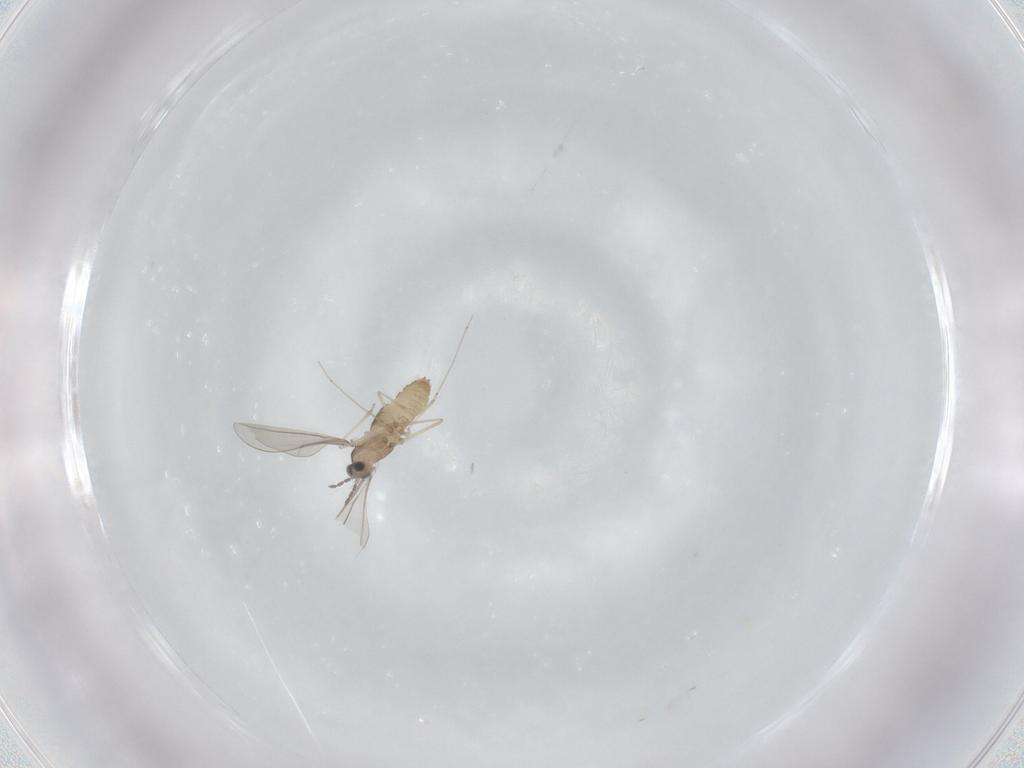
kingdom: Animalia
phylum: Arthropoda
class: Insecta
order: Diptera
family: Cecidomyiidae
